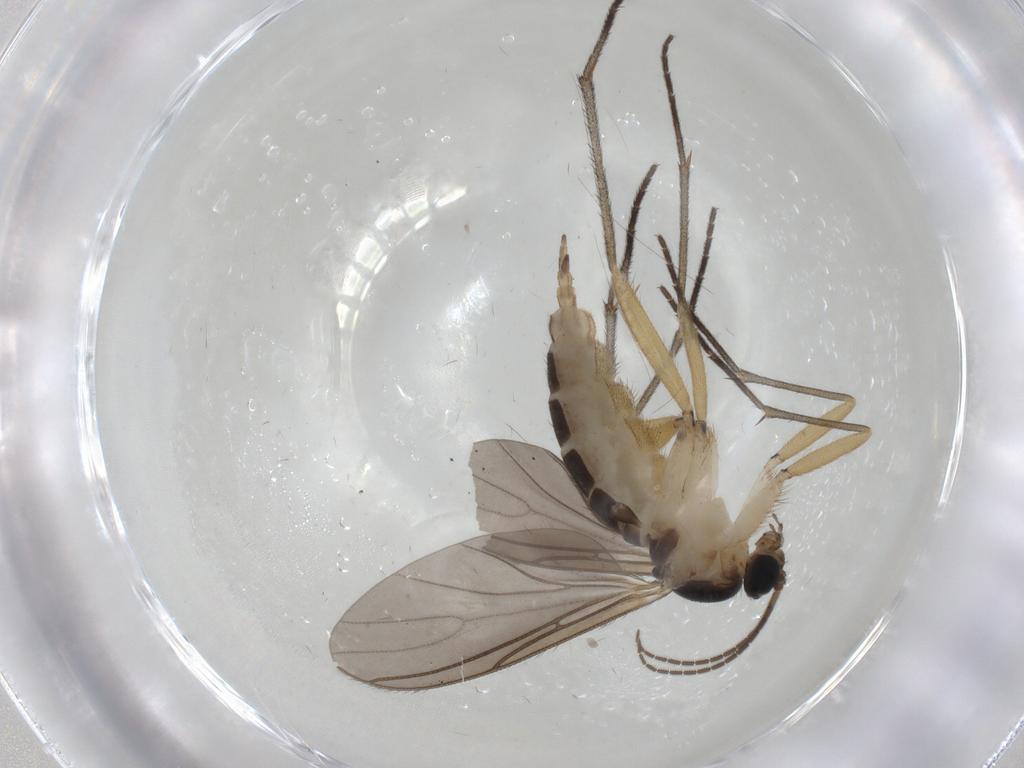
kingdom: Animalia
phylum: Arthropoda
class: Insecta
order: Diptera
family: Sciaridae
